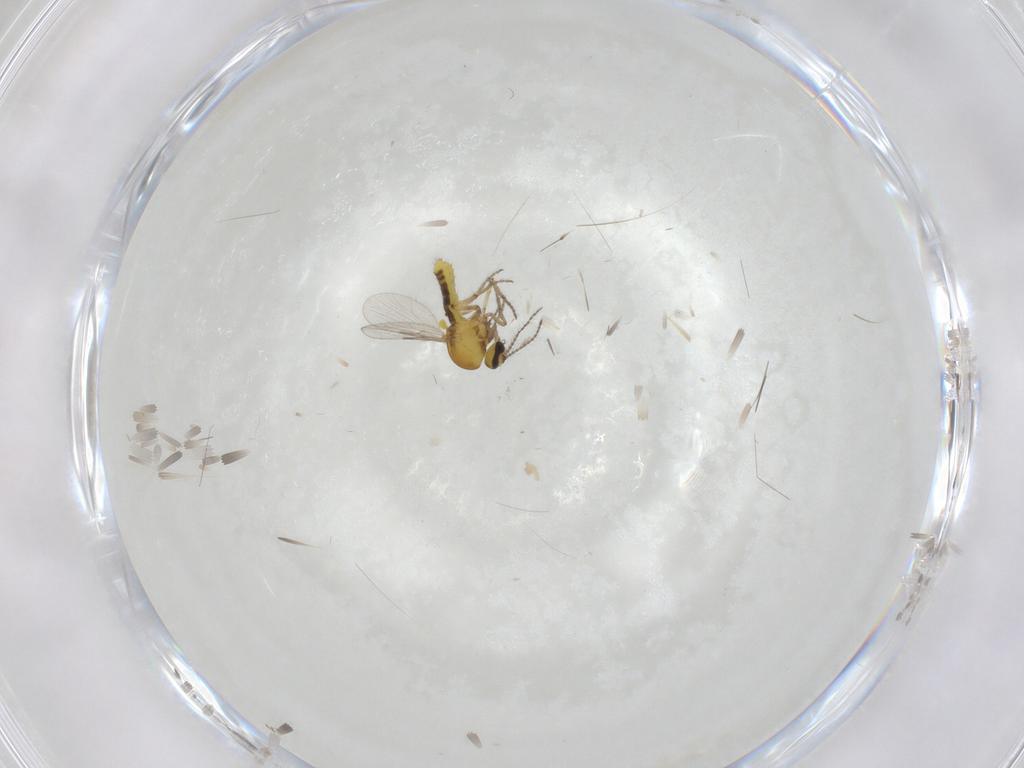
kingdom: Animalia
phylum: Arthropoda
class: Insecta
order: Diptera
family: Ceratopogonidae
